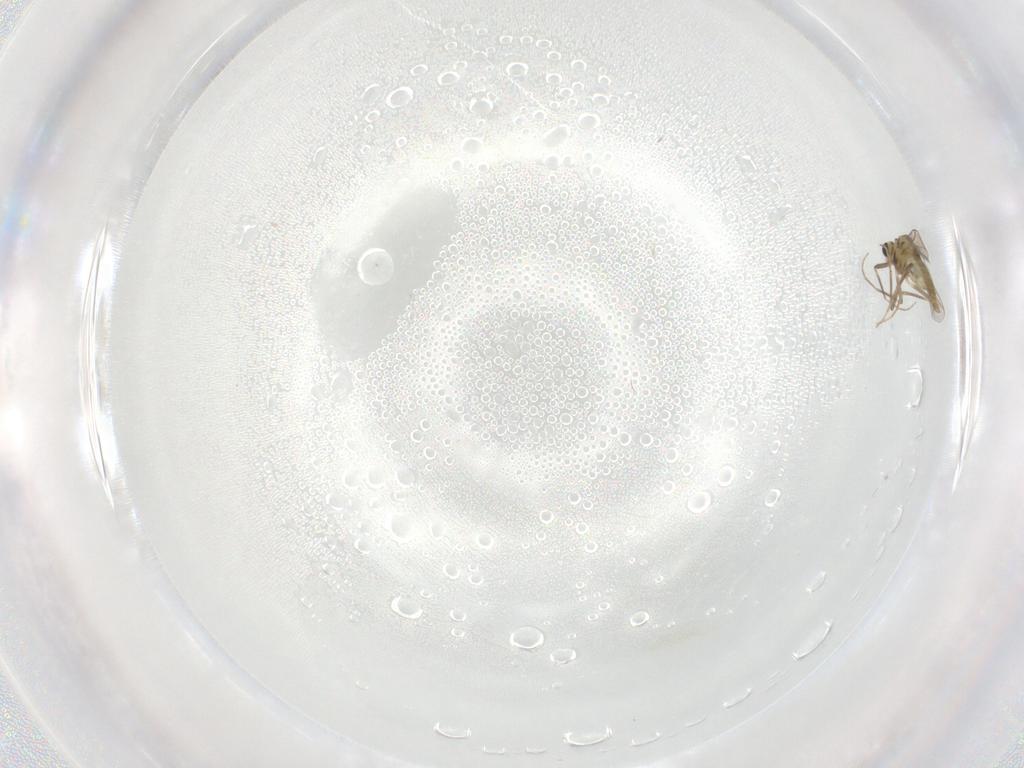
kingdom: Animalia
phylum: Arthropoda
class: Insecta
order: Diptera
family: Chironomidae
